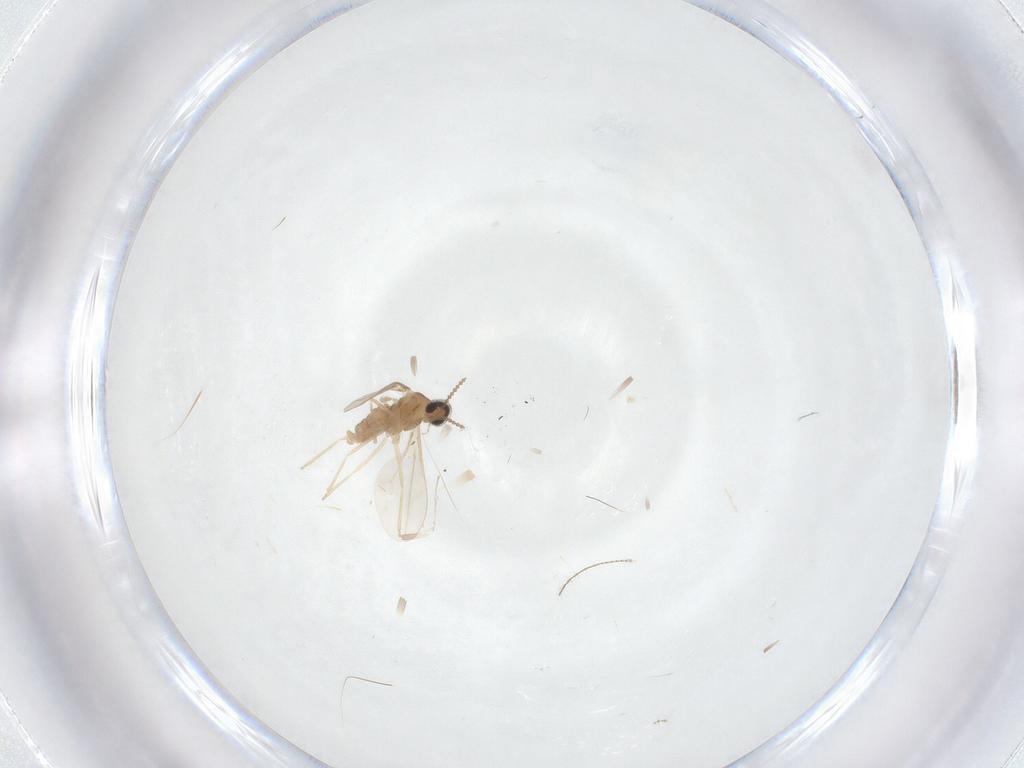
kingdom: Animalia
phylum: Arthropoda
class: Insecta
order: Diptera
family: Ceratopogonidae
